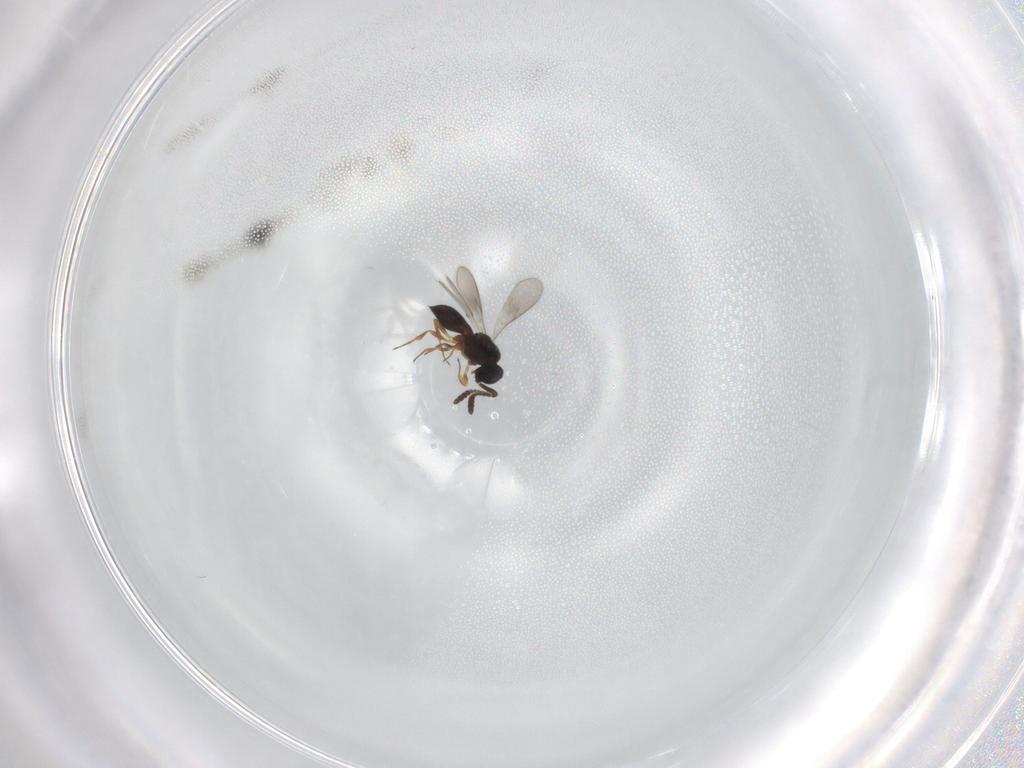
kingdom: Animalia
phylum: Arthropoda
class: Insecta
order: Hymenoptera
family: Scelionidae
